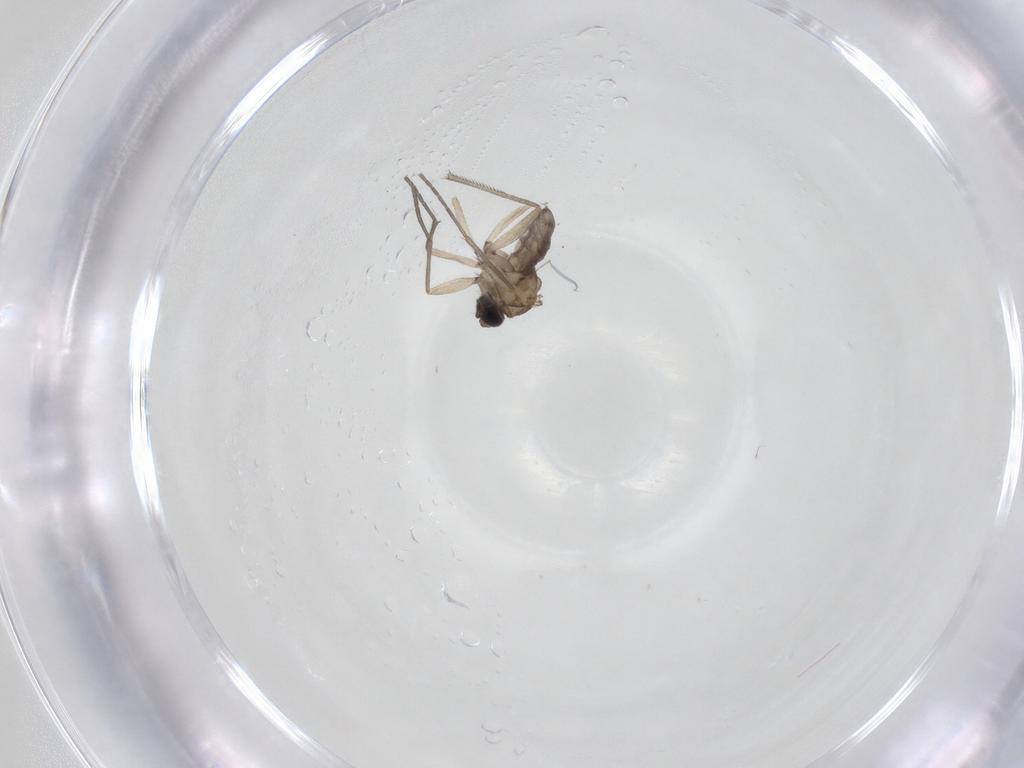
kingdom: Animalia
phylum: Arthropoda
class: Insecta
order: Diptera
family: Sciaridae
